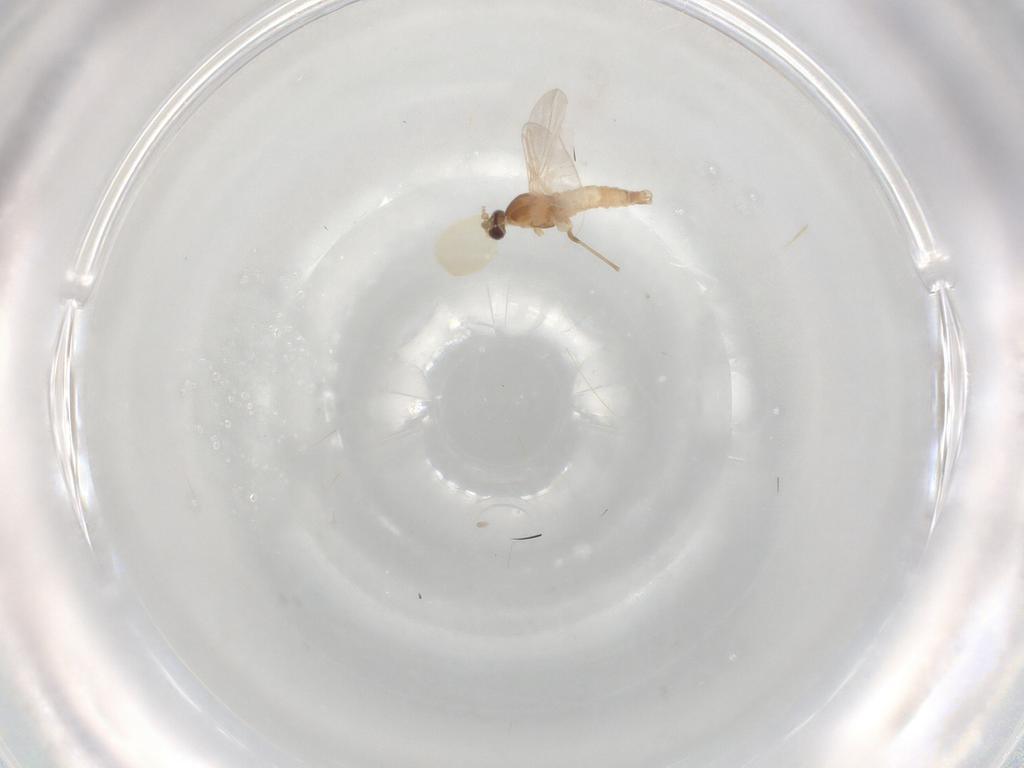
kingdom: Animalia
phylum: Arthropoda
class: Insecta
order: Diptera
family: Cecidomyiidae
